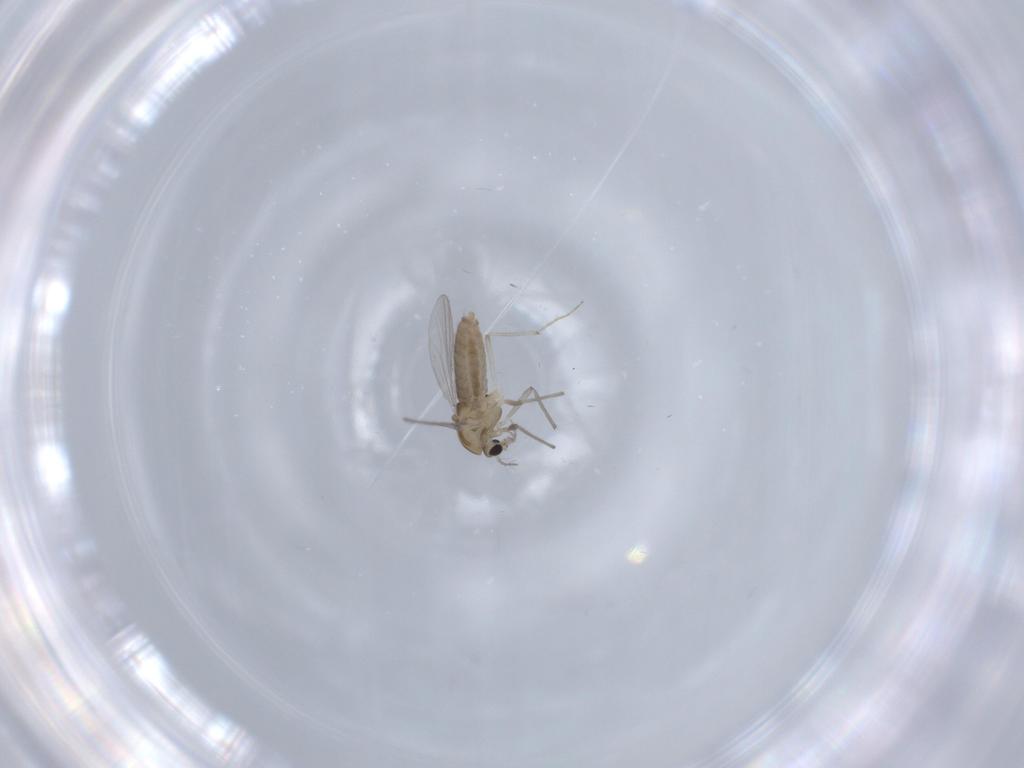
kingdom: Animalia
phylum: Arthropoda
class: Insecta
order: Diptera
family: Chironomidae
